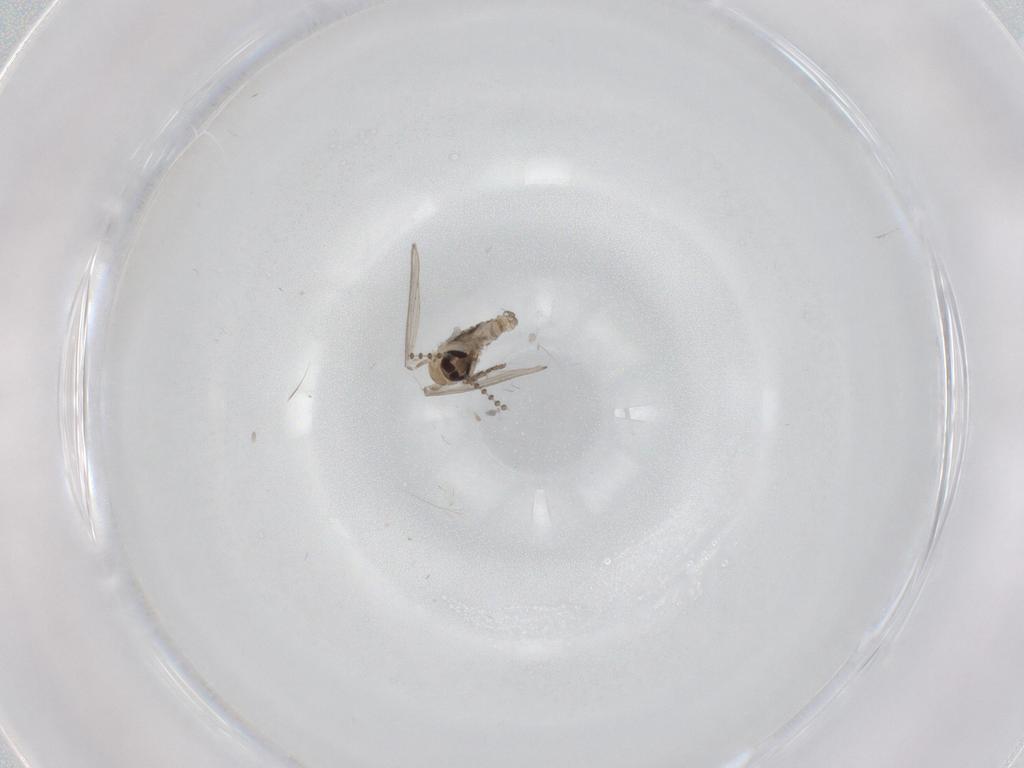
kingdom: Animalia
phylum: Arthropoda
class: Insecta
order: Diptera
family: Psychodidae
